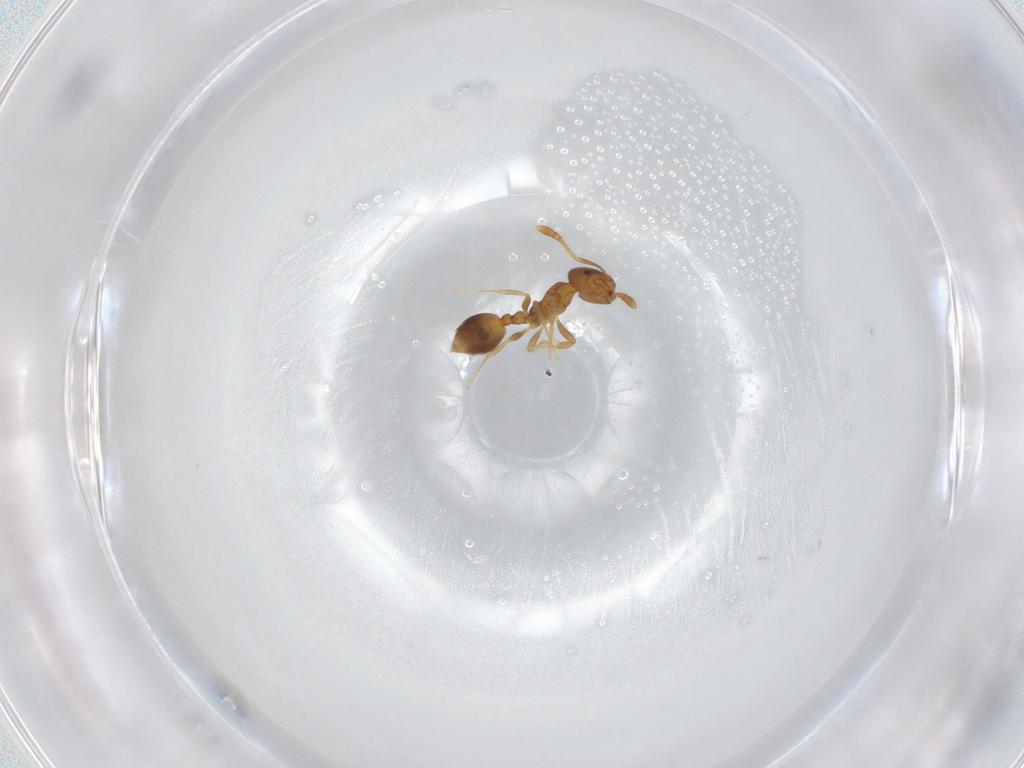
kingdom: Animalia
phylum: Arthropoda
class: Insecta
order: Hymenoptera
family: Formicidae
